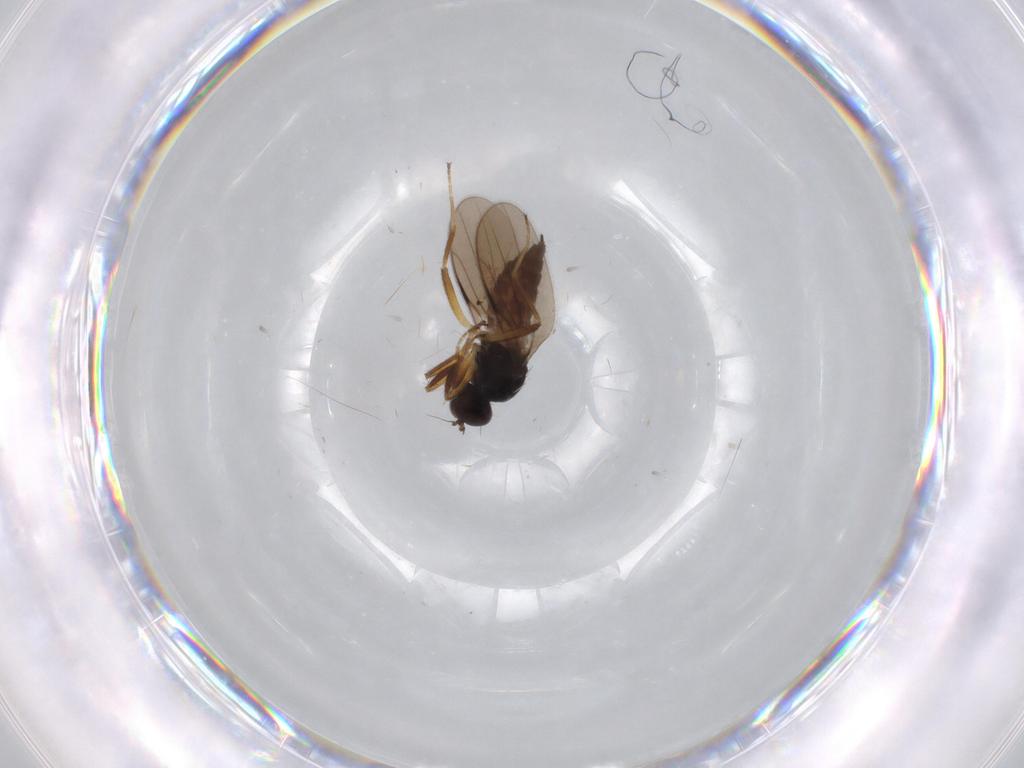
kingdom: Animalia
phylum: Arthropoda
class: Insecta
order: Diptera
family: Hybotidae
